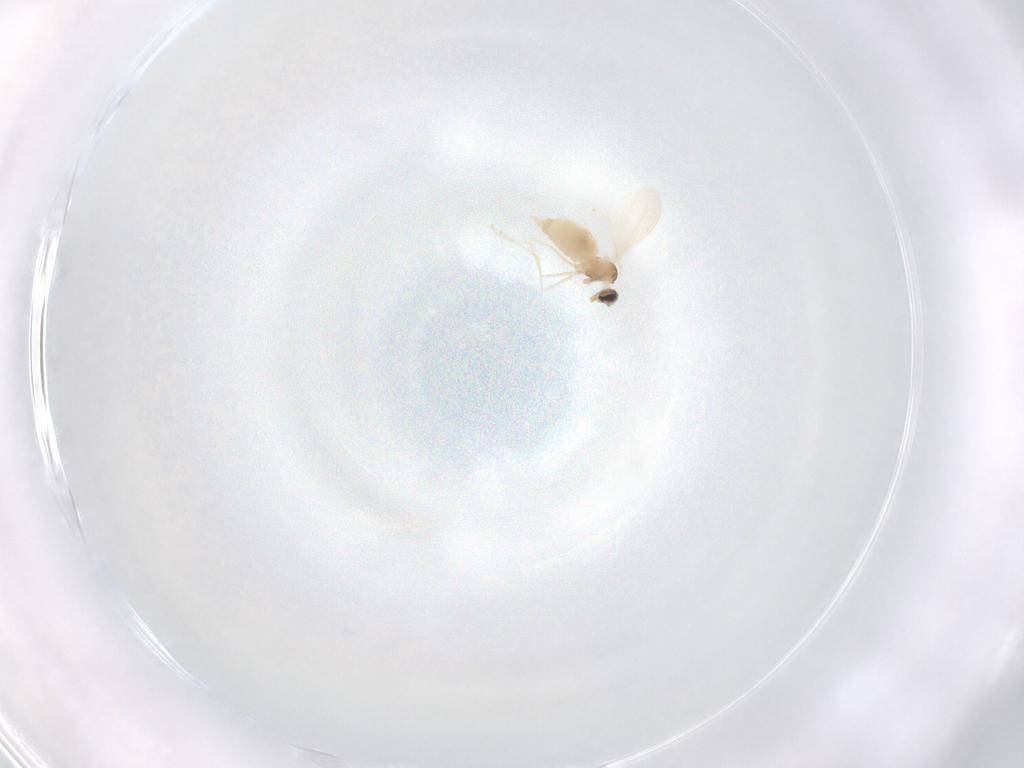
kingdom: Animalia
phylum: Arthropoda
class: Insecta
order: Diptera
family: Cecidomyiidae
